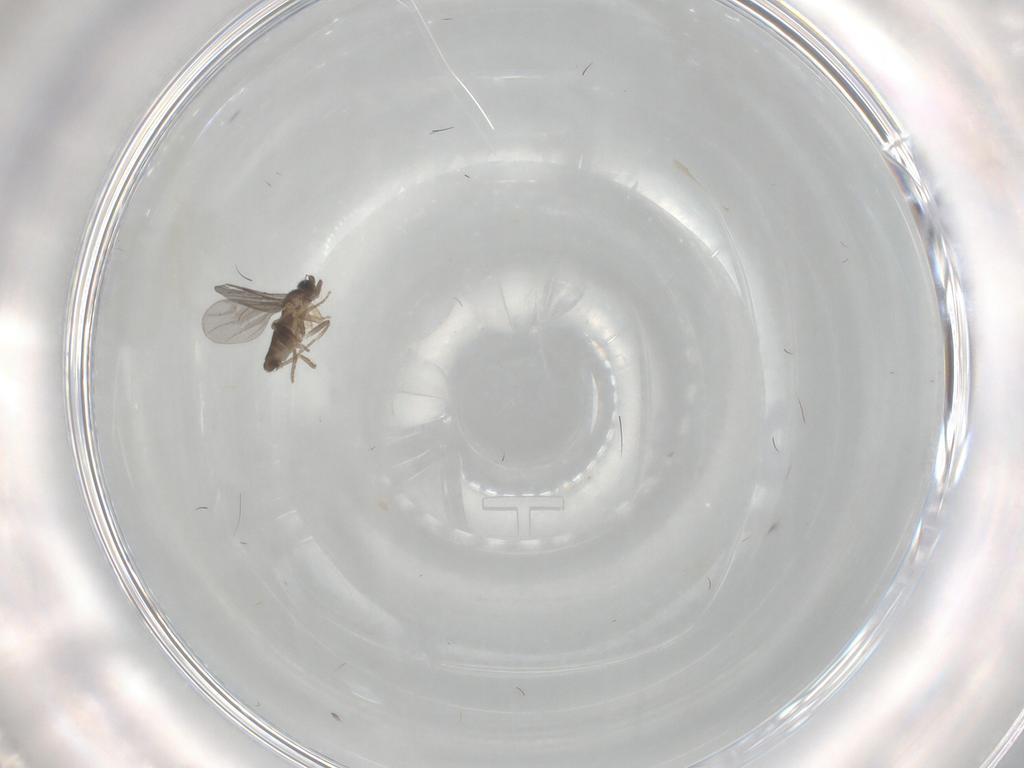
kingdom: Animalia
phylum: Arthropoda
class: Insecta
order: Diptera
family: Tabanidae
